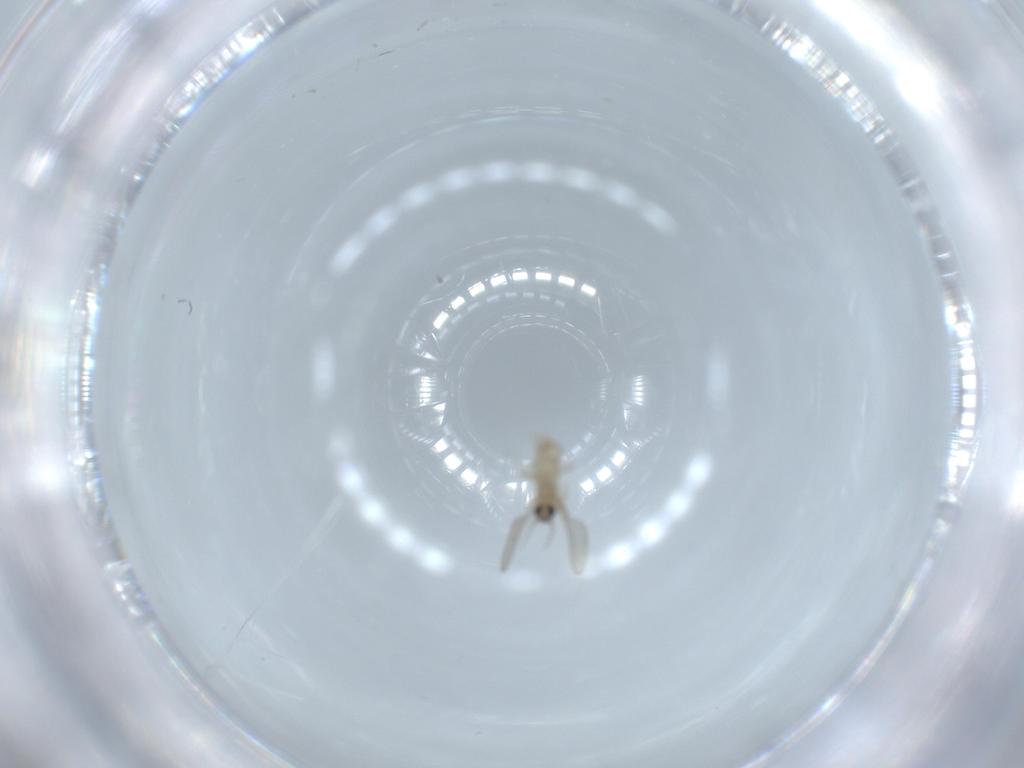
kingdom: Animalia
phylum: Arthropoda
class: Insecta
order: Diptera
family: Cecidomyiidae
